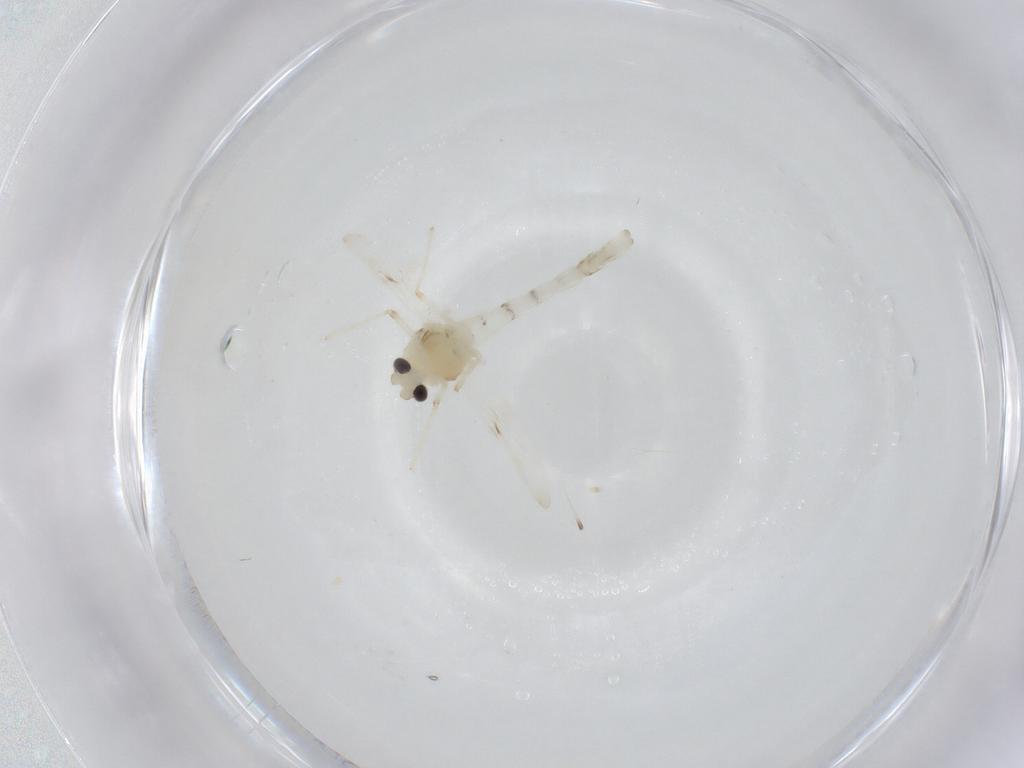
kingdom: Animalia
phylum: Arthropoda
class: Insecta
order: Diptera
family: Chloropidae
